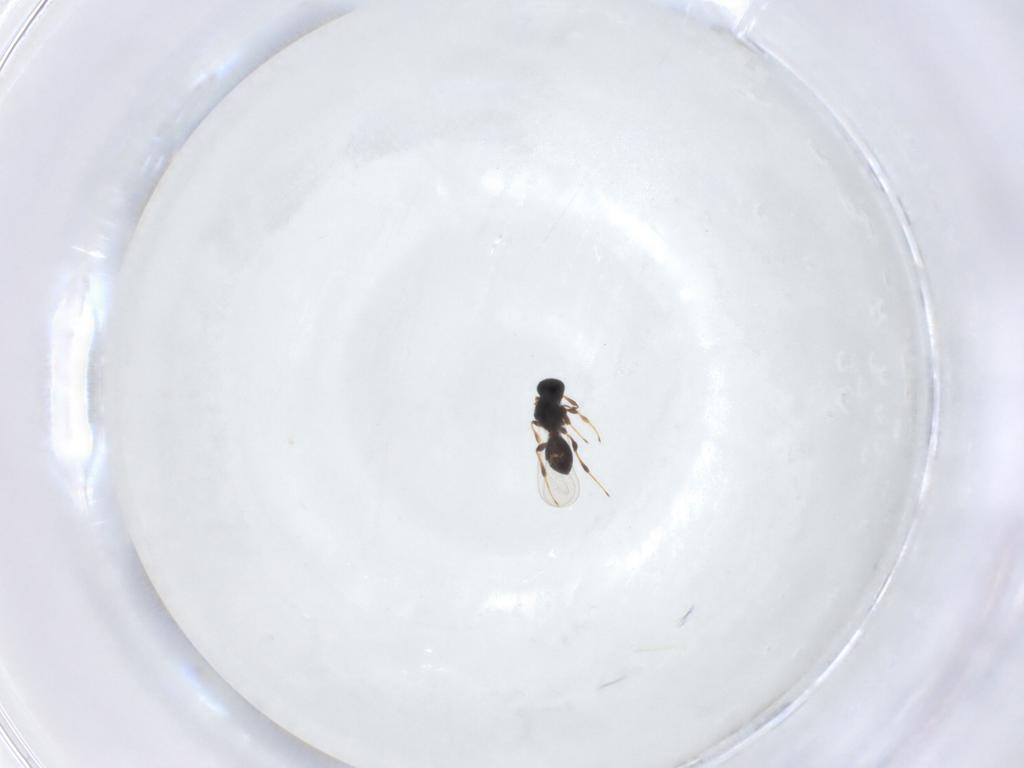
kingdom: Animalia
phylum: Arthropoda
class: Insecta
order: Hymenoptera
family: Platygastridae
